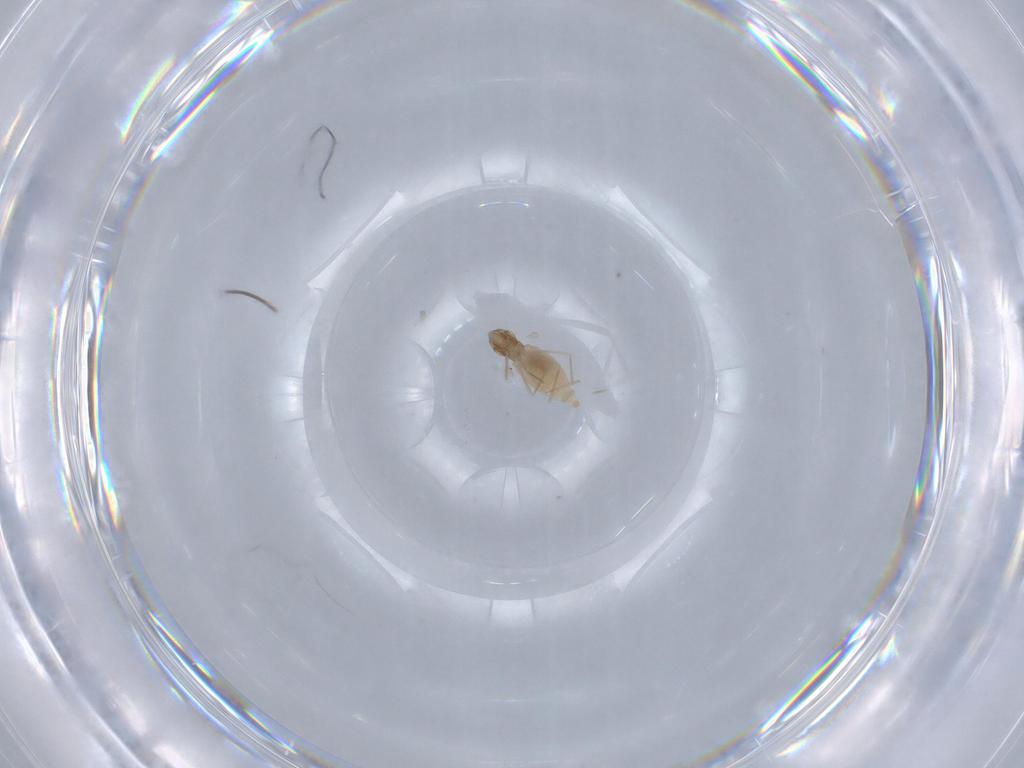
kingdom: Animalia
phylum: Arthropoda
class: Insecta
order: Diptera
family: Cecidomyiidae
